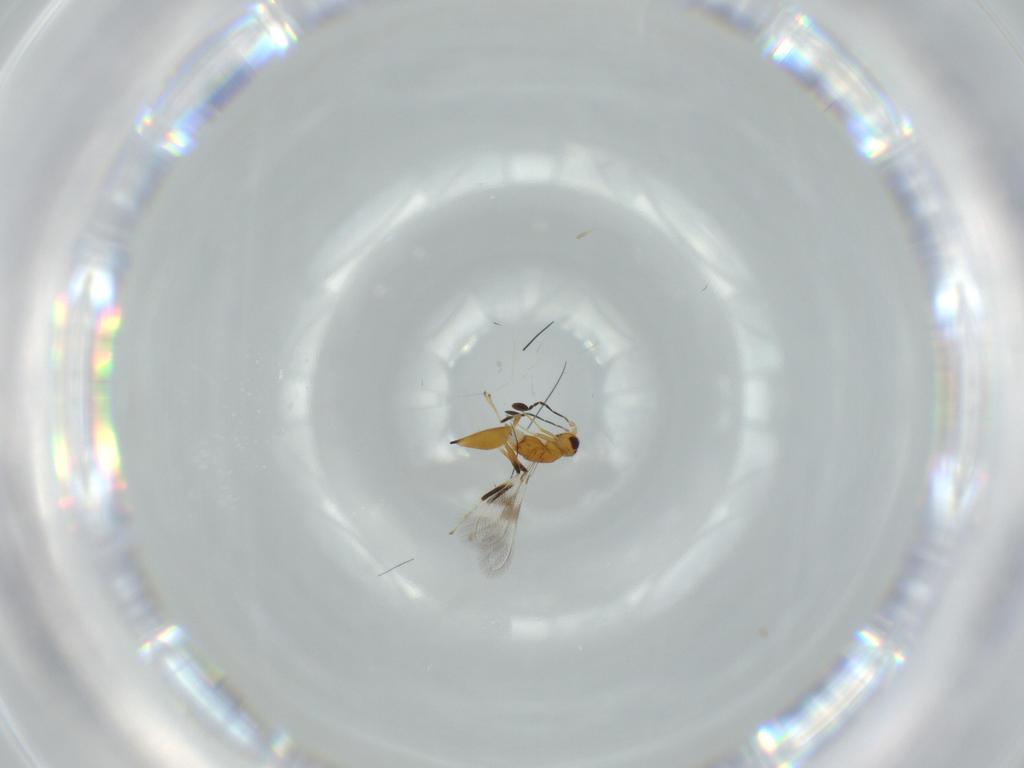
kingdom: Animalia
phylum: Arthropoda
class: Insecta
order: Hymenoptera
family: Mymaridae
